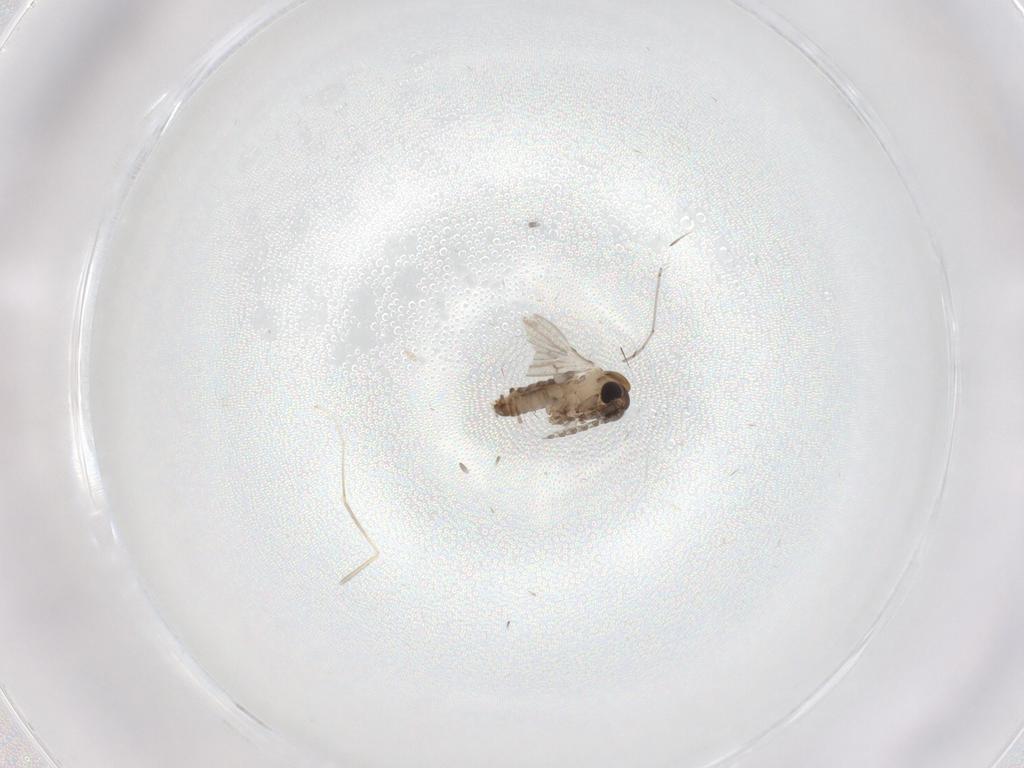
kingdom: Animalia
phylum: Arthropoda
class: Insecta
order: Diptera
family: Cecidomyiidae
